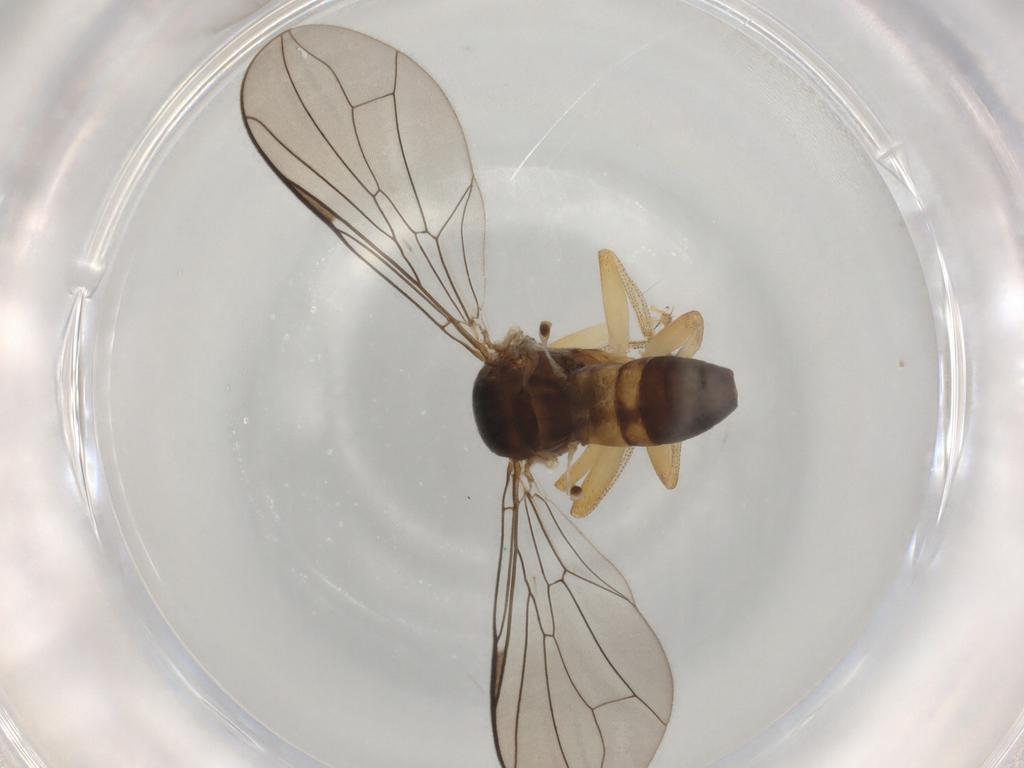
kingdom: Animalia
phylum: Arthropoda
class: Insecta
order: Diptera
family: Pipunculidae
